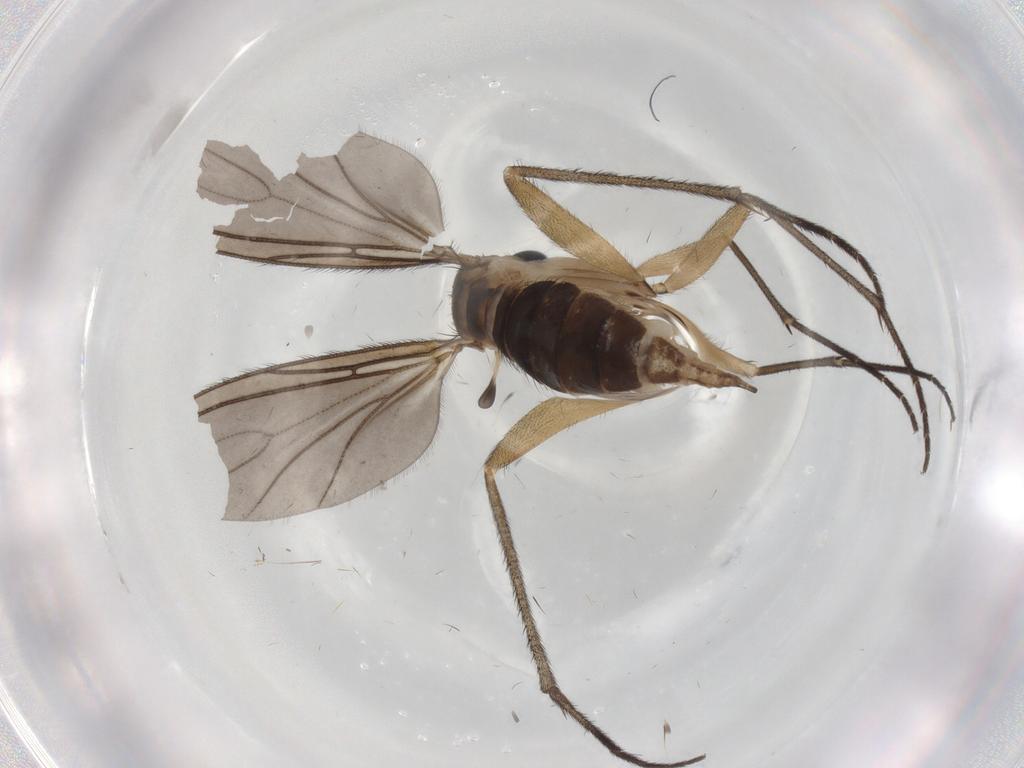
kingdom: Animalia
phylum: Arthropoda
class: Insecta
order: Diptera
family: Sciaridae
